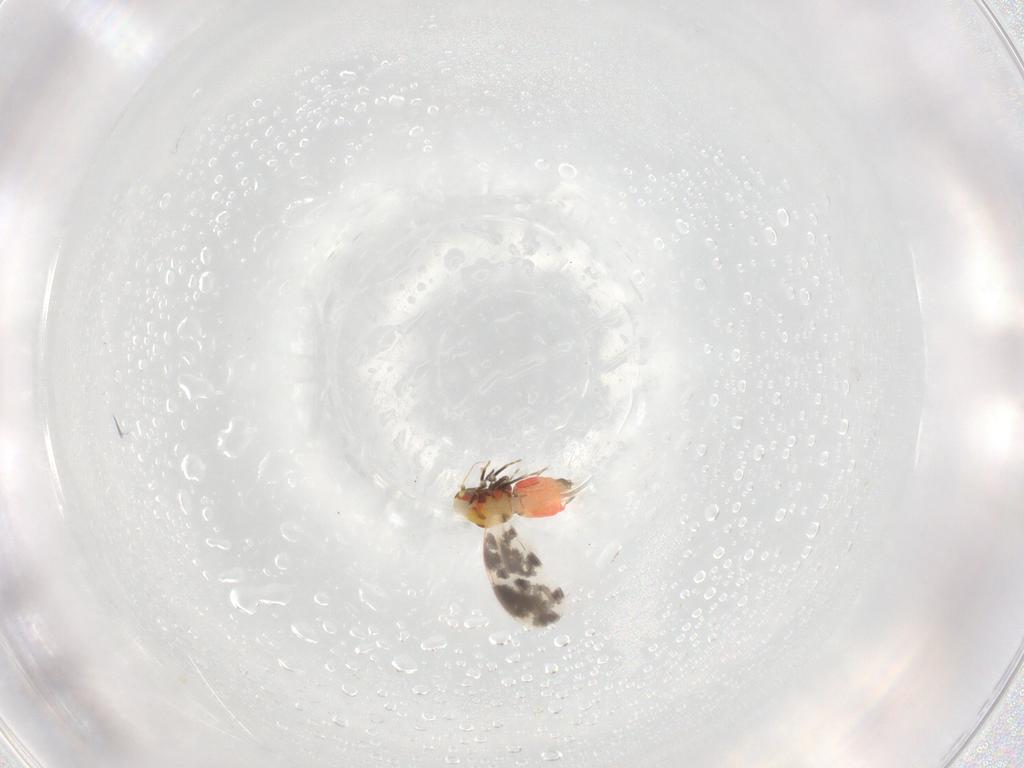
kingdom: Animalia
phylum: Arthropoda
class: Insecta
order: Hemiptera
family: Aleyrodidae
